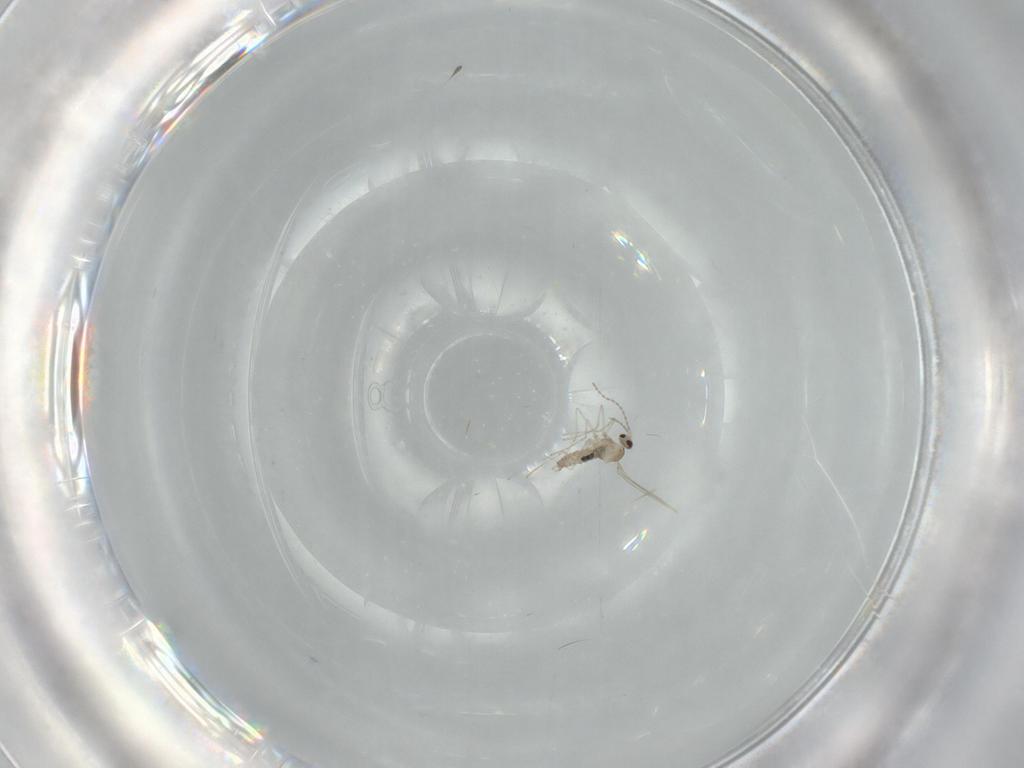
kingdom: Animalia
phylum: Arthropoda
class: Insecta
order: Diptera
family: Cecidomyiidae
